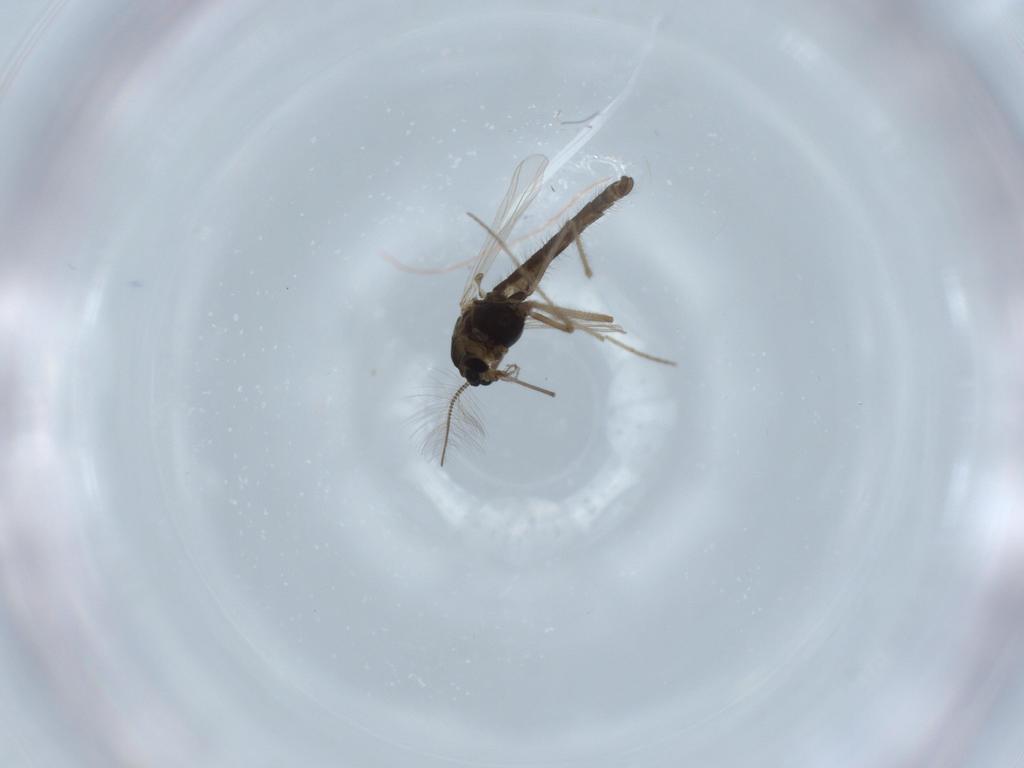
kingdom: Animalia
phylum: Arthropoda
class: Insecta
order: Diptera
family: Chironomidae
